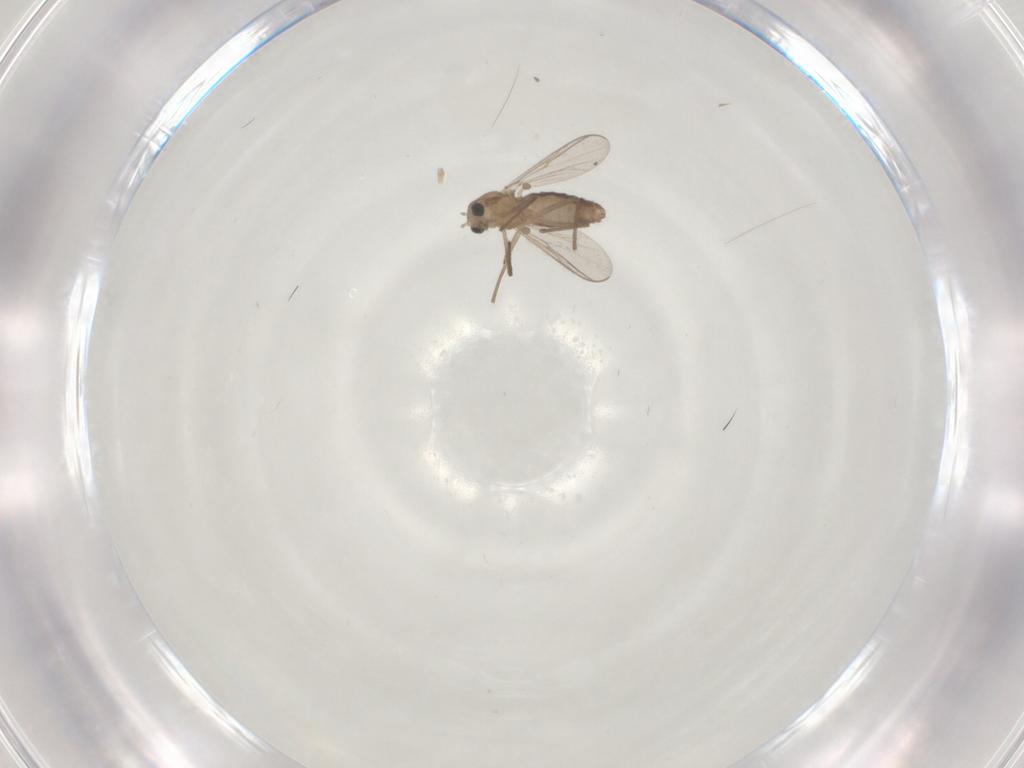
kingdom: Animalia
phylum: Arthropoda
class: Insecta
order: Diptera
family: Chironomidae
